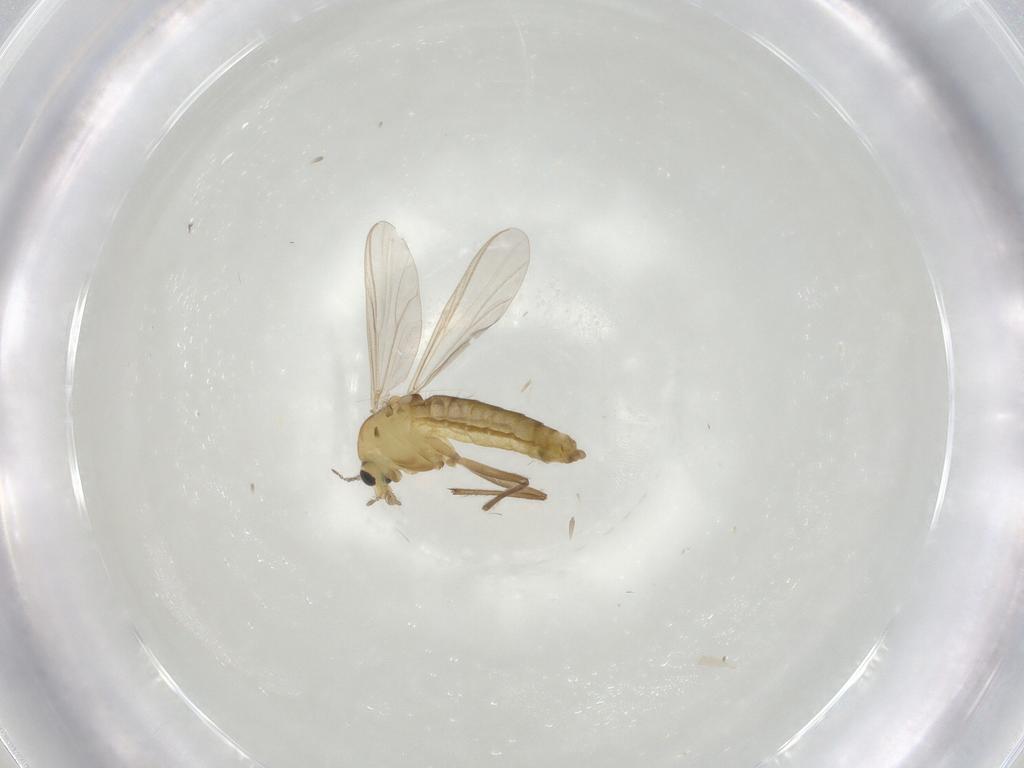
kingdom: Animalia
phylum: Arthropoda
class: Insecta
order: Diptera
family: Chironomidae
